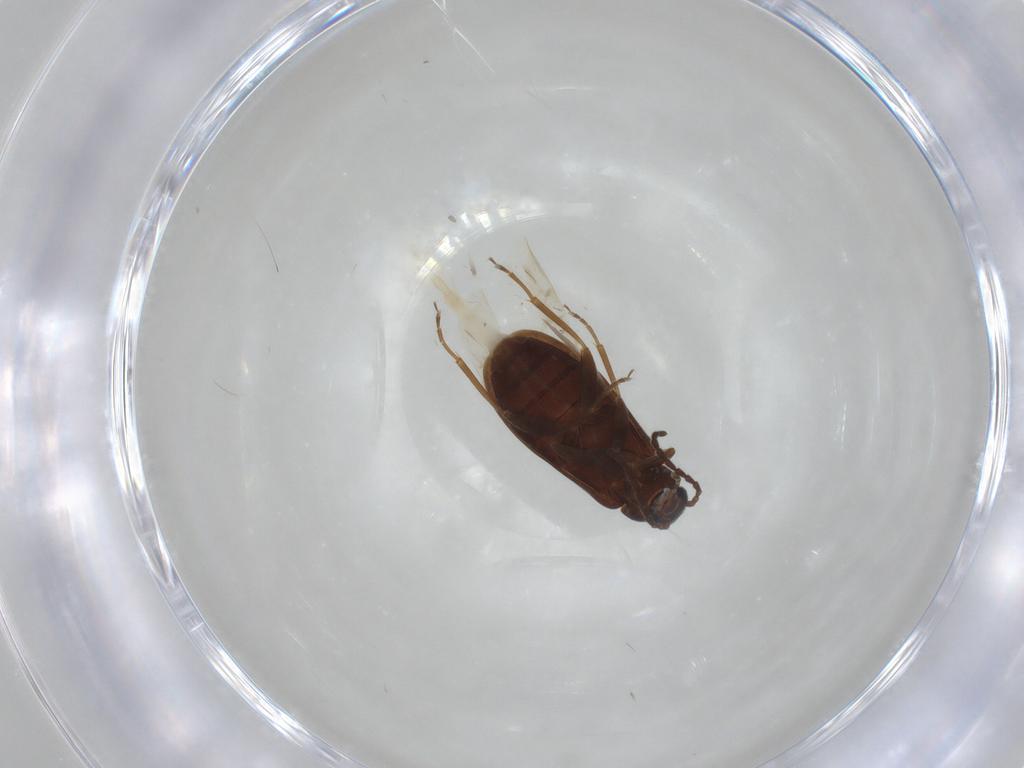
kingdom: Animalia
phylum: Arthropoda
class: Insecta
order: Coleoptera
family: Scraptiidae
